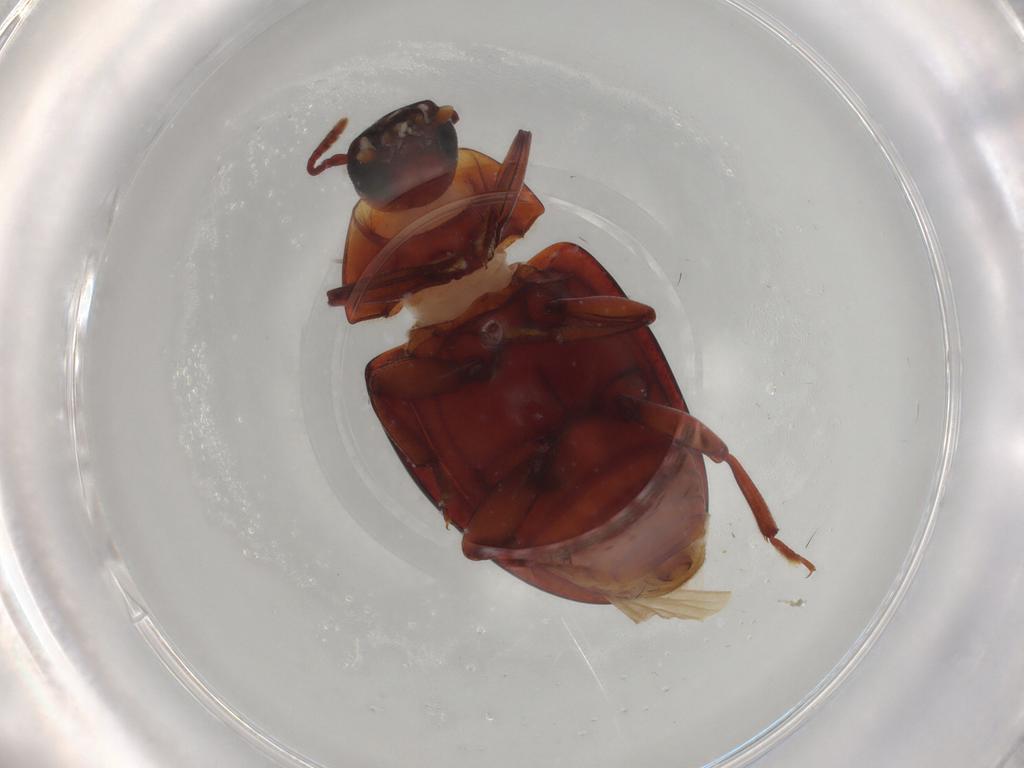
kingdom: Animalia
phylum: Arthropoda
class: Insecta
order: Coleoptera
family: Zopheridae
